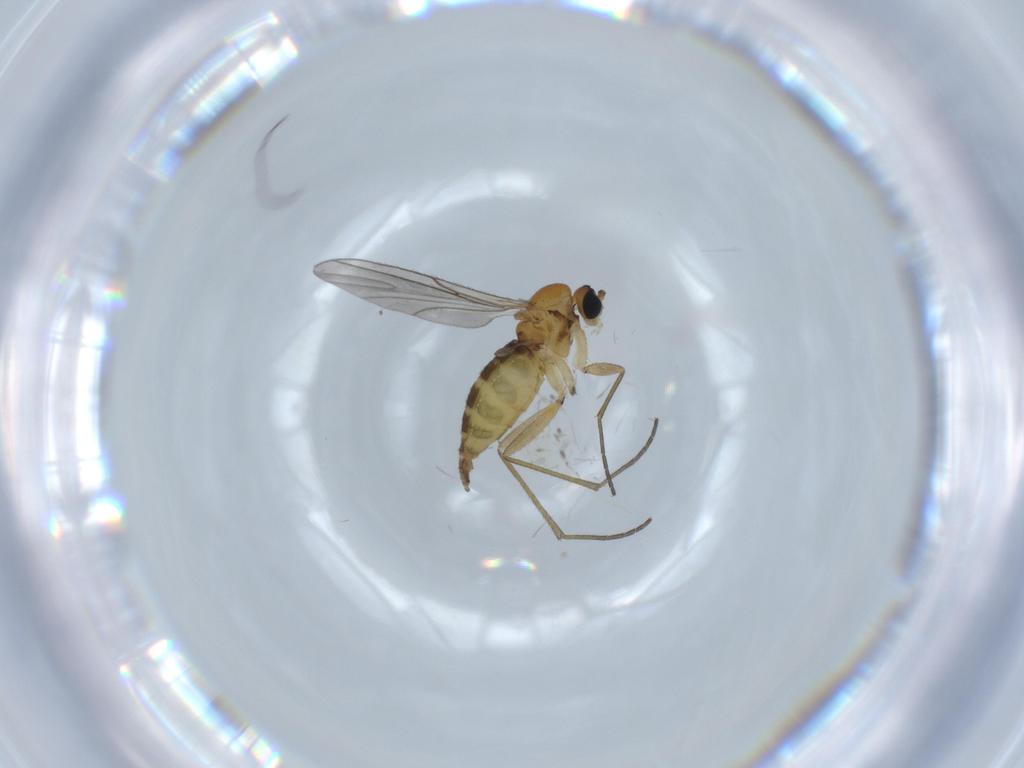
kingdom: Animalia
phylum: Arthropoda
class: Insecta
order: Diptera
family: Sciaridae
